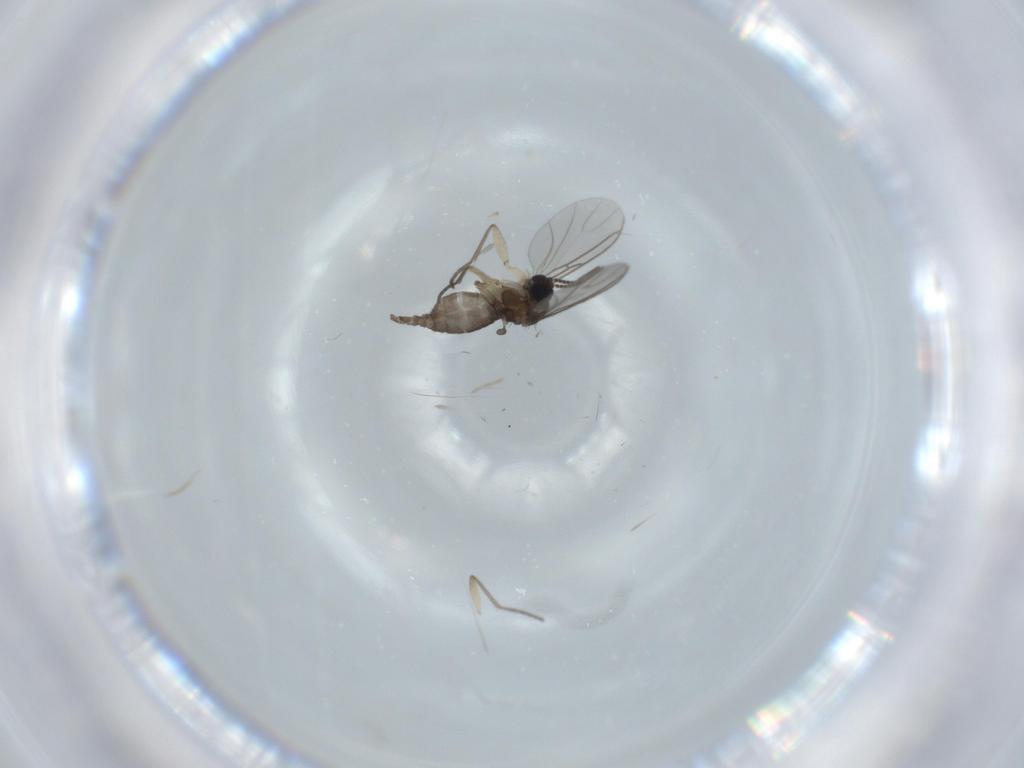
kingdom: Animalia
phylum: Arthropoda
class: Insecta
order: Diptera
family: Sciaridae
